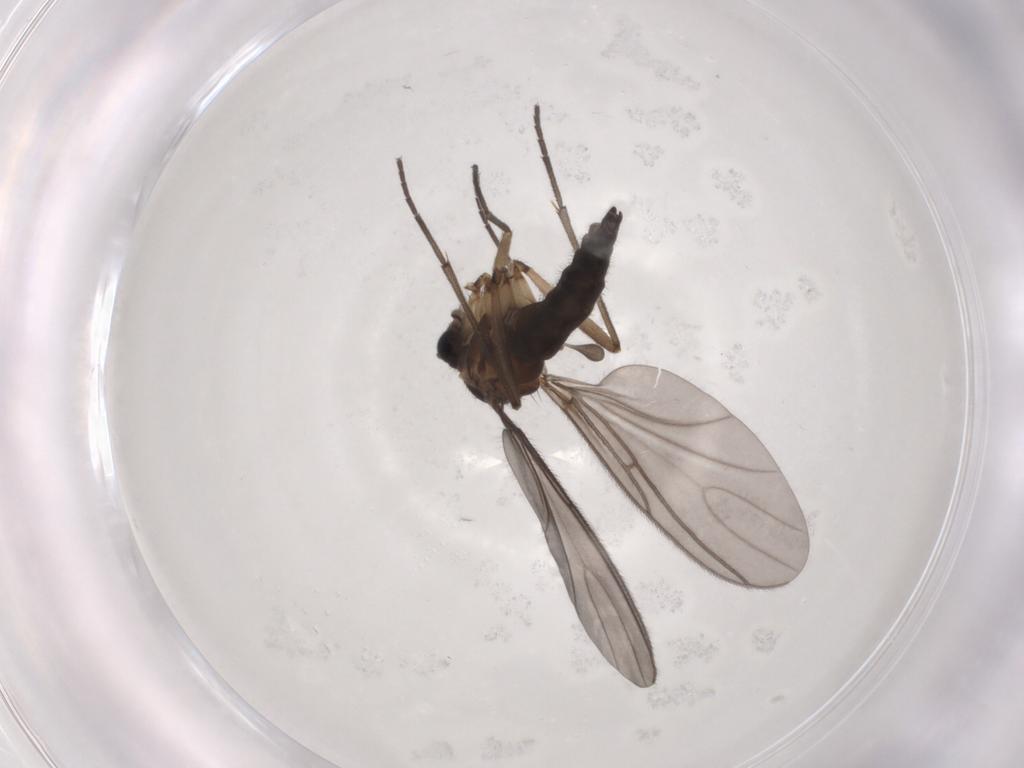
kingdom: Animalia
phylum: Arthropoda
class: Insecta
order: Diptera
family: Sciaridae
